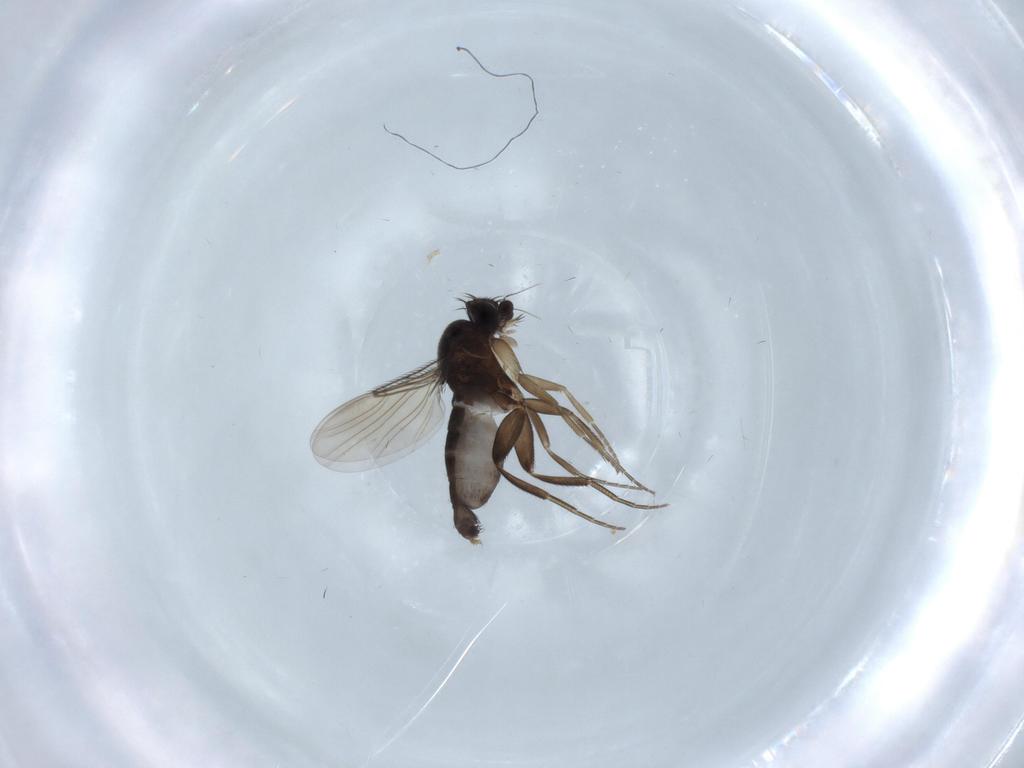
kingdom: Animalia
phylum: Arthropoda
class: Insecta
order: Diptera
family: Phoridae
